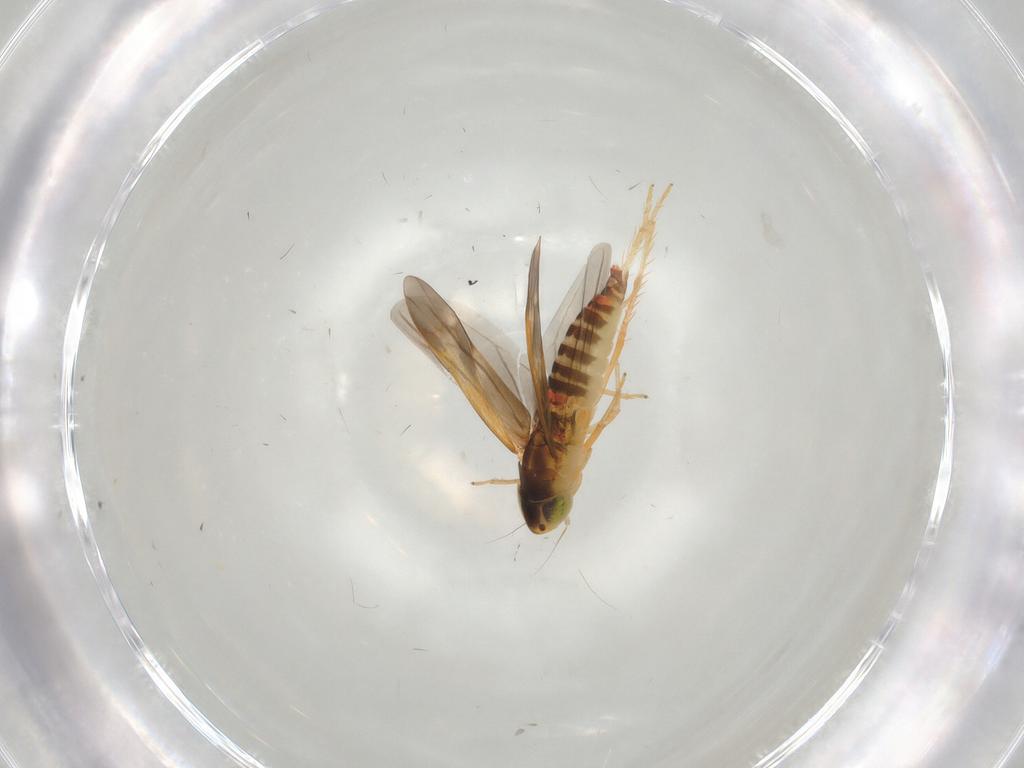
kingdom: Animalia
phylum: Arthropoda
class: Insecta
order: Hemiptera
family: Cicadellidae
